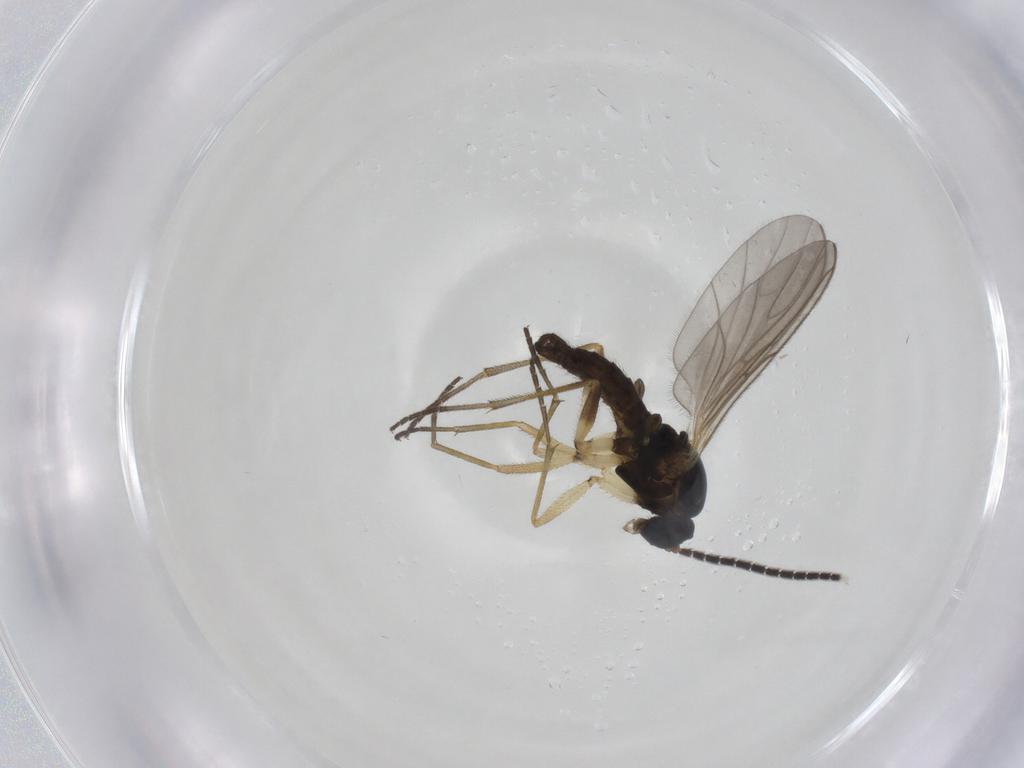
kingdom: Animalia
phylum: Arthropoda
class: Insecta
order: Diptera
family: Sciaridae
